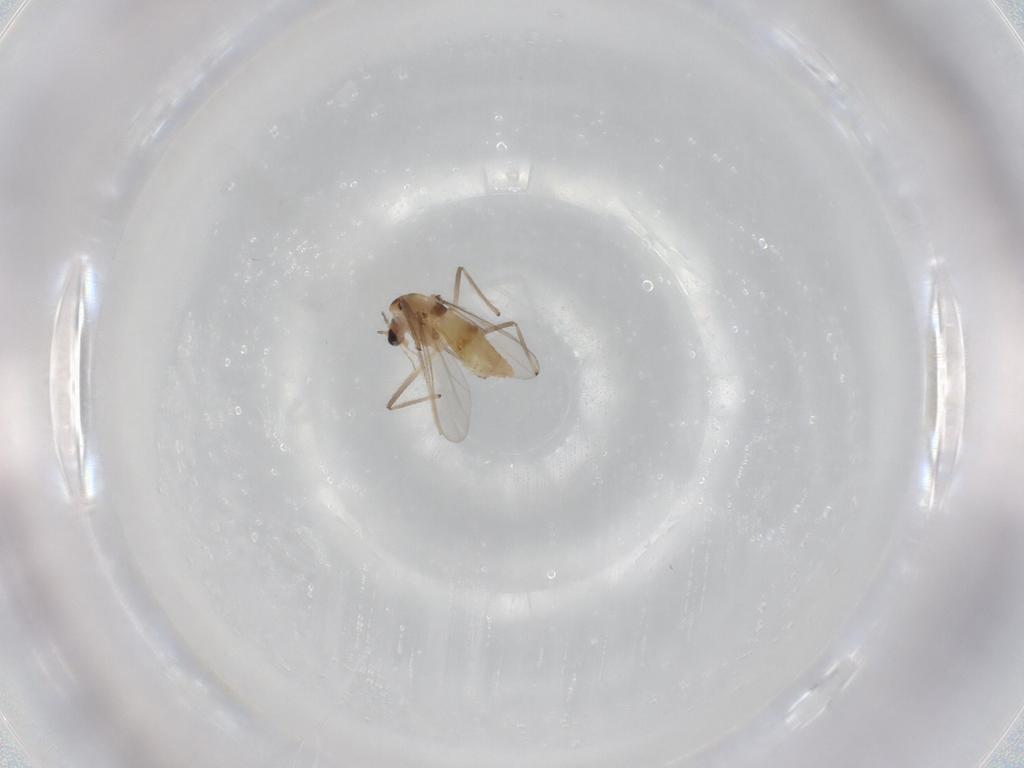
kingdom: Animalia
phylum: Arthropoda
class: Insecta
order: Diptera
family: Chironomidae
